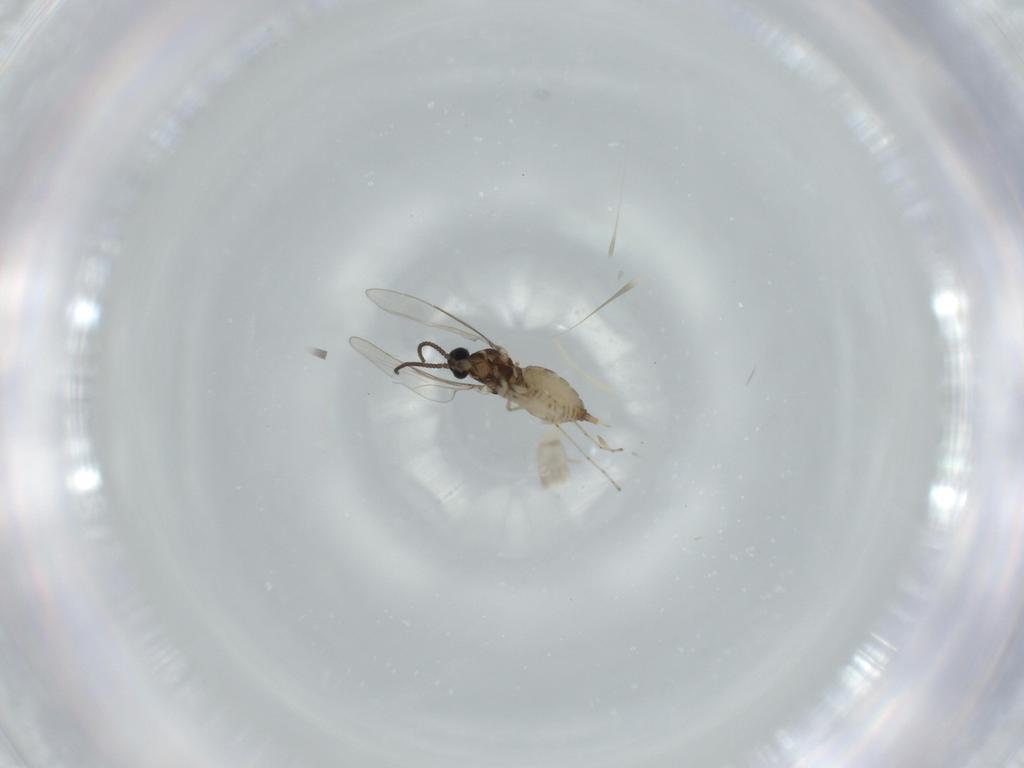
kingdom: Animalia
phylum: Arthropoda
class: Insecta
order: Diptera
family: Cecidomyiidae
